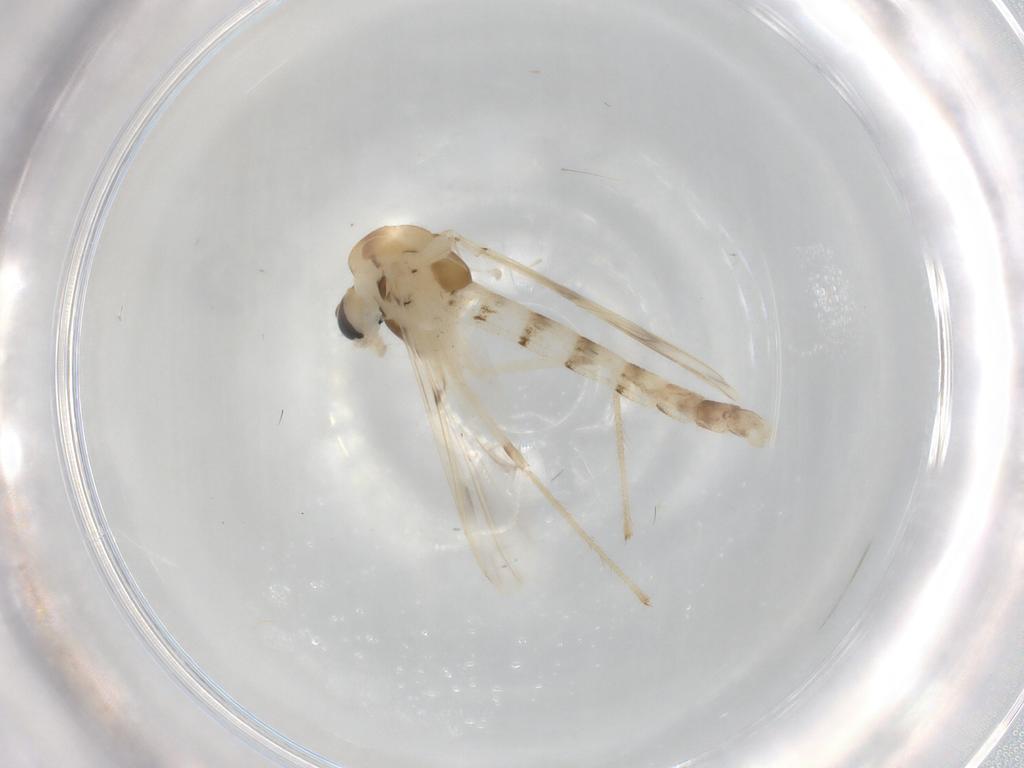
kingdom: Animalia
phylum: Arthropoda
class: Insecta
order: Diptera
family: Chironomidae
